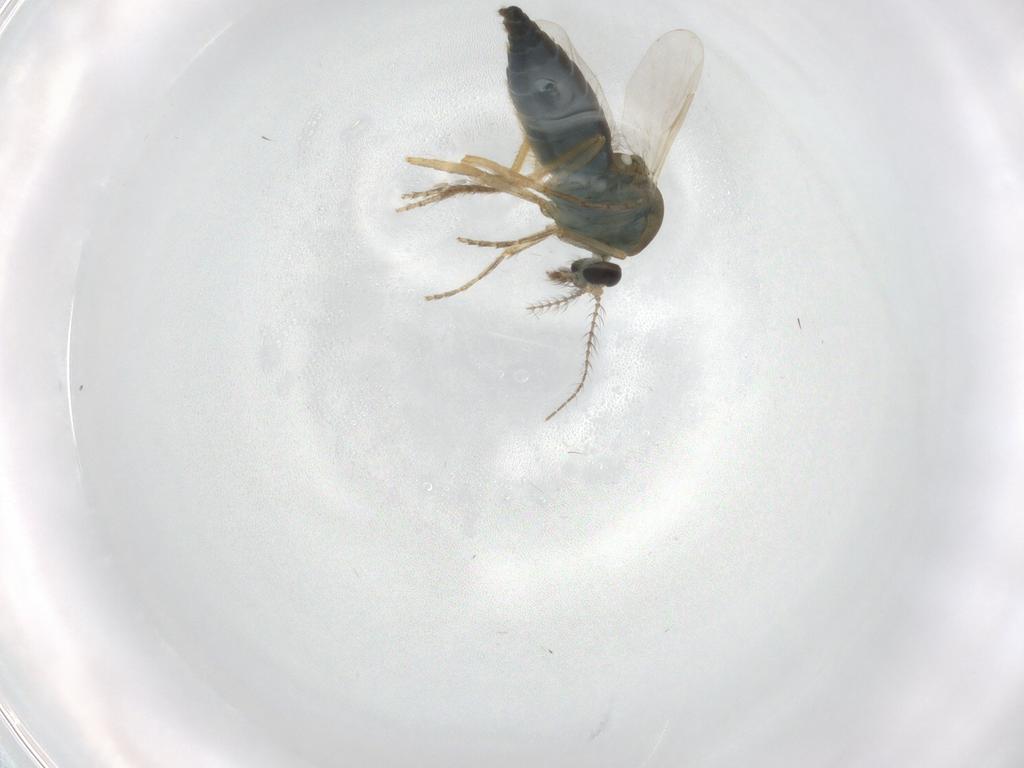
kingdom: Animalia
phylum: Arthropoda
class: Insecta
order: Diptera
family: Ceratopogonidae
